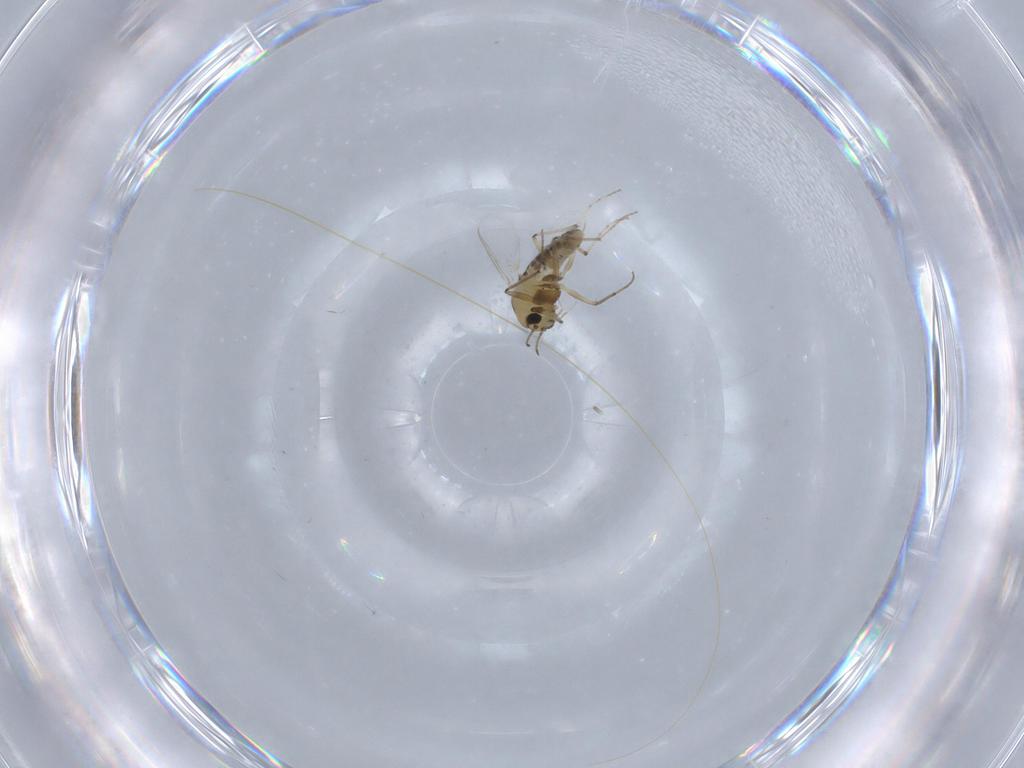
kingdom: Animalia
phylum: Arthropoda
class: Insecta
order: Diptera
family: Chironomidae
